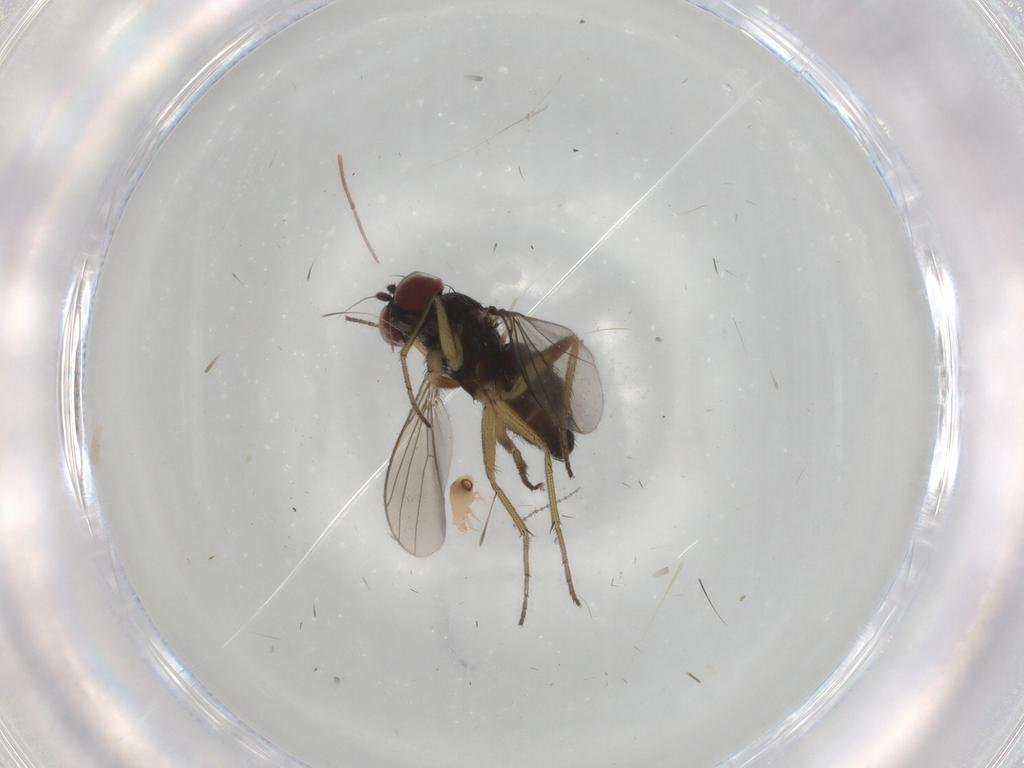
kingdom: Animalia
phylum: Arthropoda
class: Insecta
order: Diptera
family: Dolichopodidae
